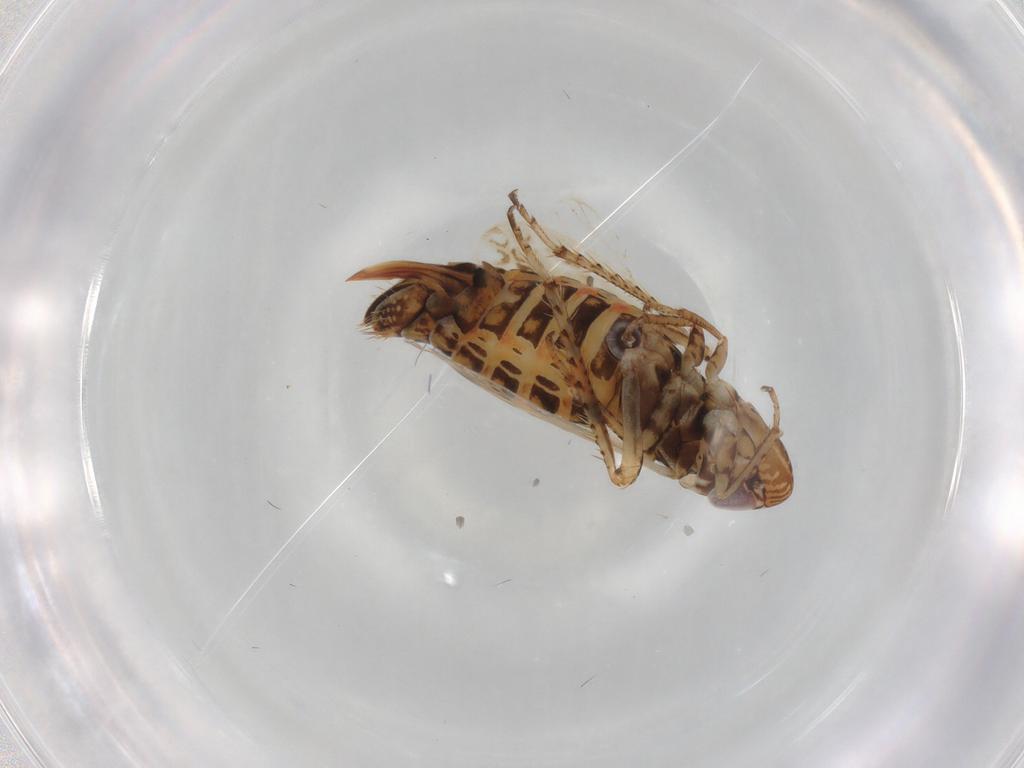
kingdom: Animalia
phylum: Arthropoda
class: Insecta
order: Hemiptera
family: Cicadellidae
